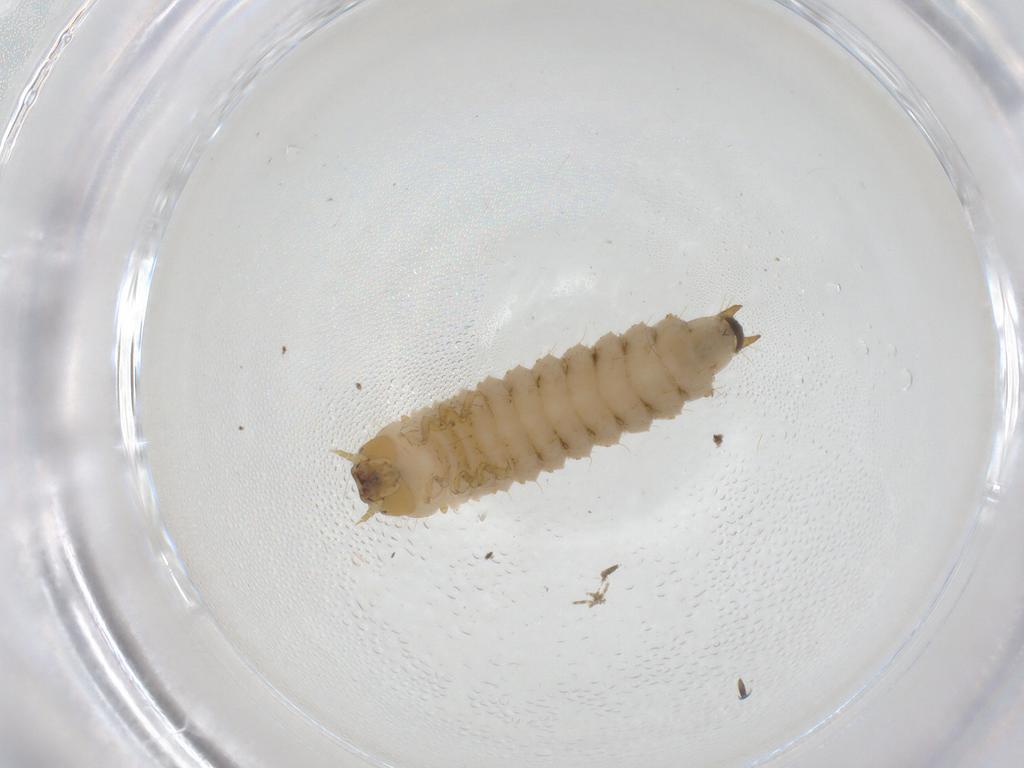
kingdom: Animalia
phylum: Arthropoda
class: Insecta
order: Coleoptera
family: Nitidulidae
